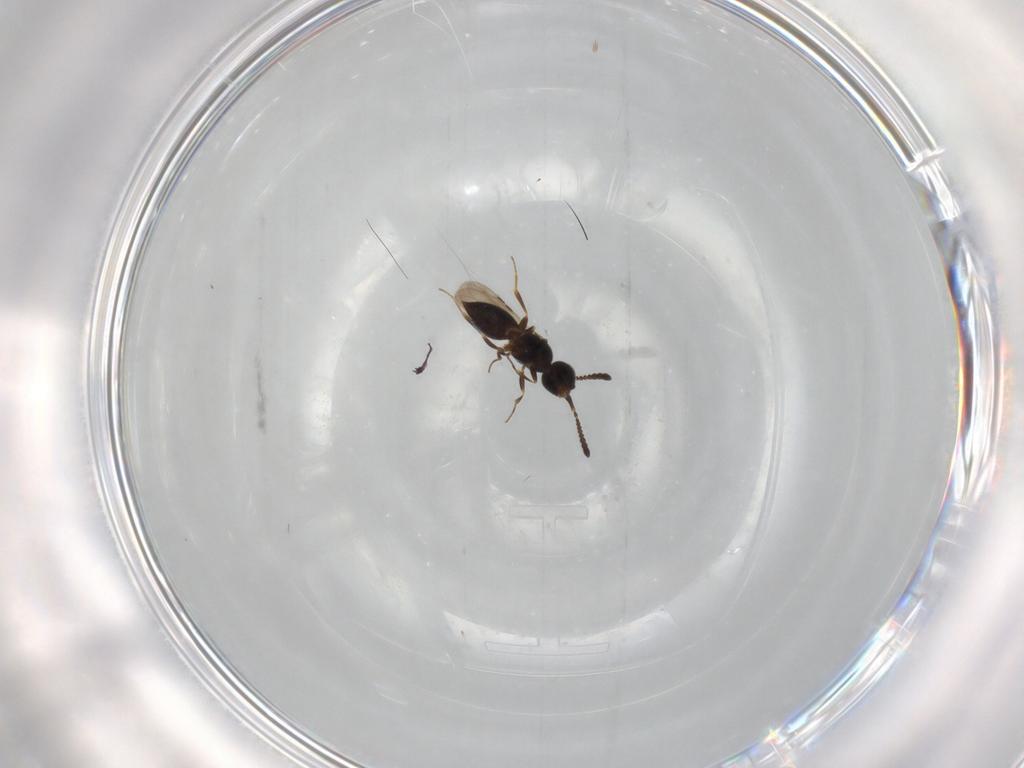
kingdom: Animalia
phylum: Arthropoda
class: Insecta
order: Hymenoptera
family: Ceraphronidae
